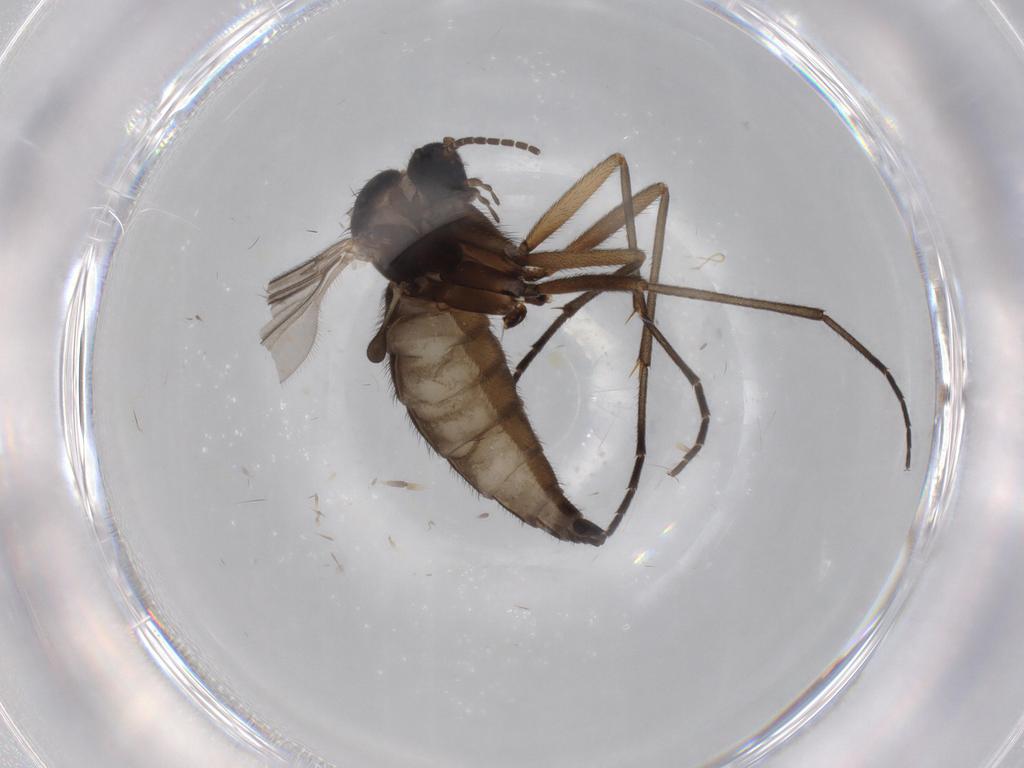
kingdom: Animalia
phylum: Arthropoda
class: Insecta
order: Diptera
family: Sciaridae
